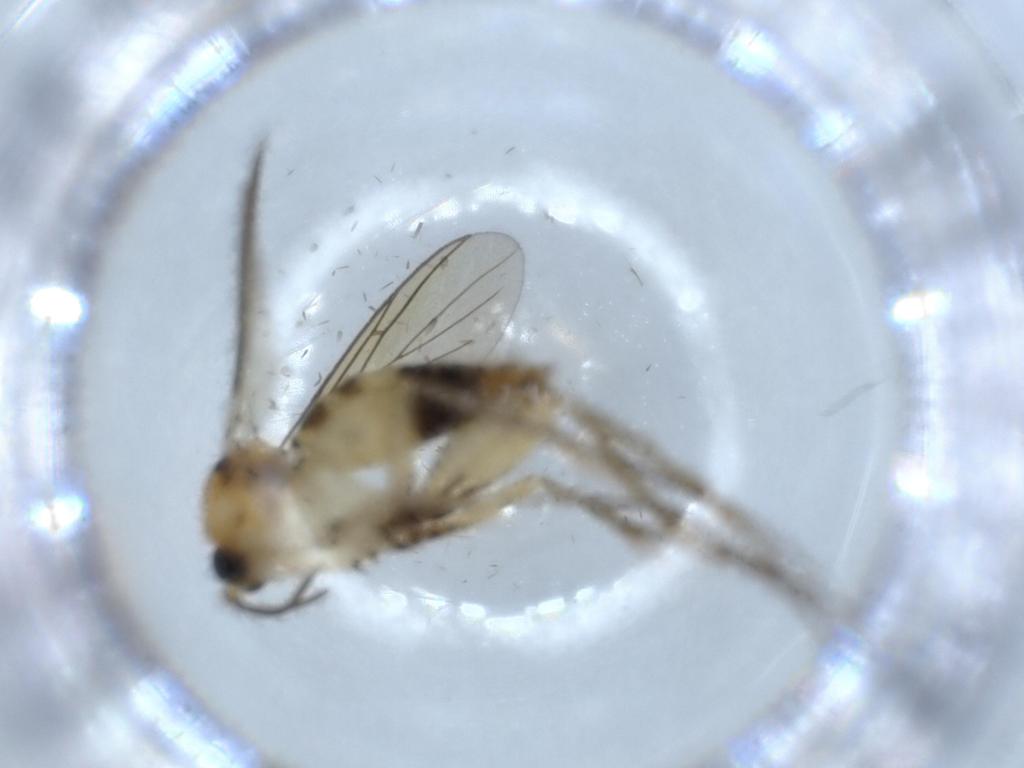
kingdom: Animalia
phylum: Arthropoda
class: Insecta
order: Diptera
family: Mycetophilidae
